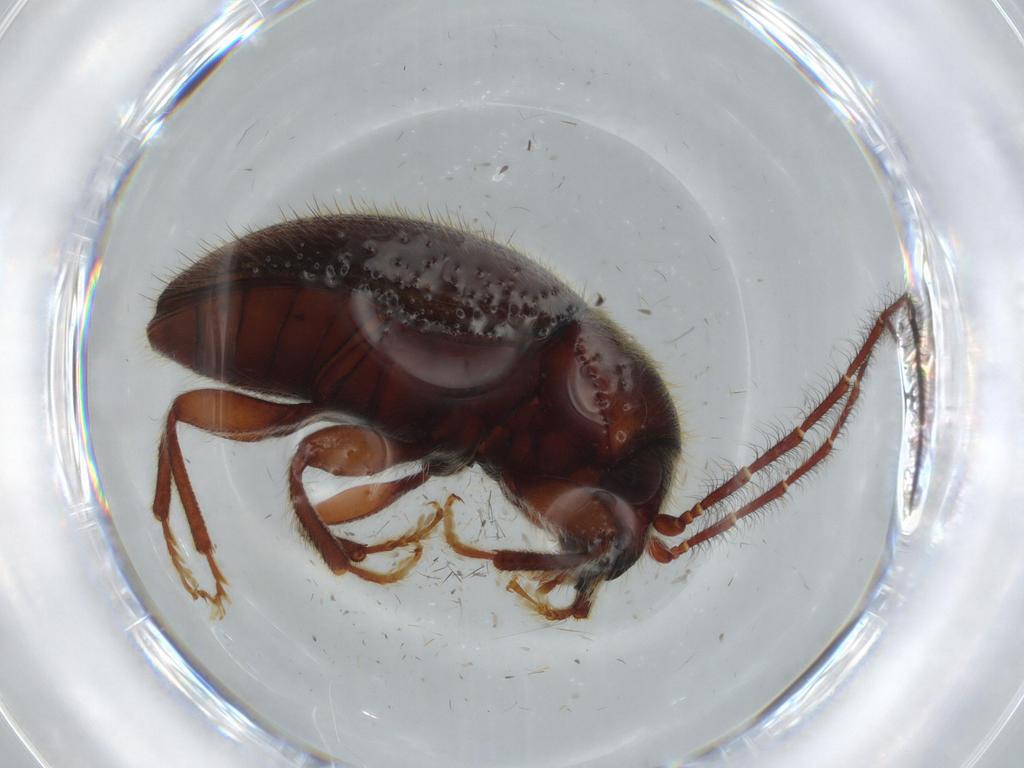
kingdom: Animalia
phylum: Arthropoda
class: Insecta
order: Coleoptera
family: Artematopodidae
